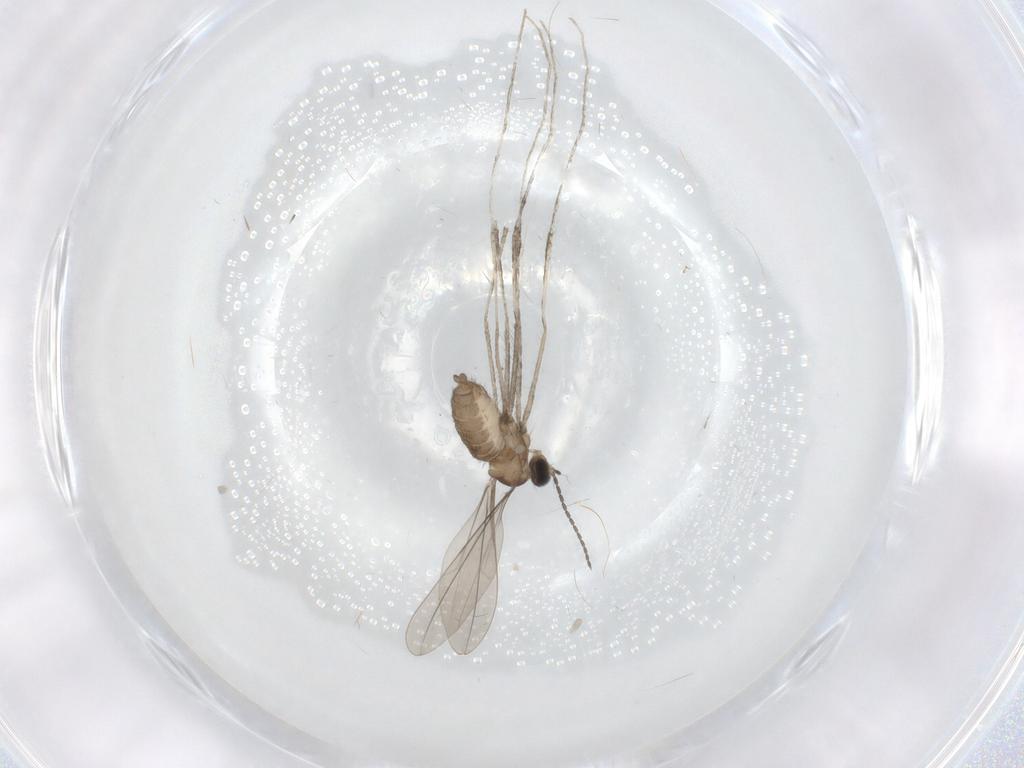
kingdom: Animalia
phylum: Arthropoda
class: Insecta
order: Diptera
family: Cecidomyiidae
